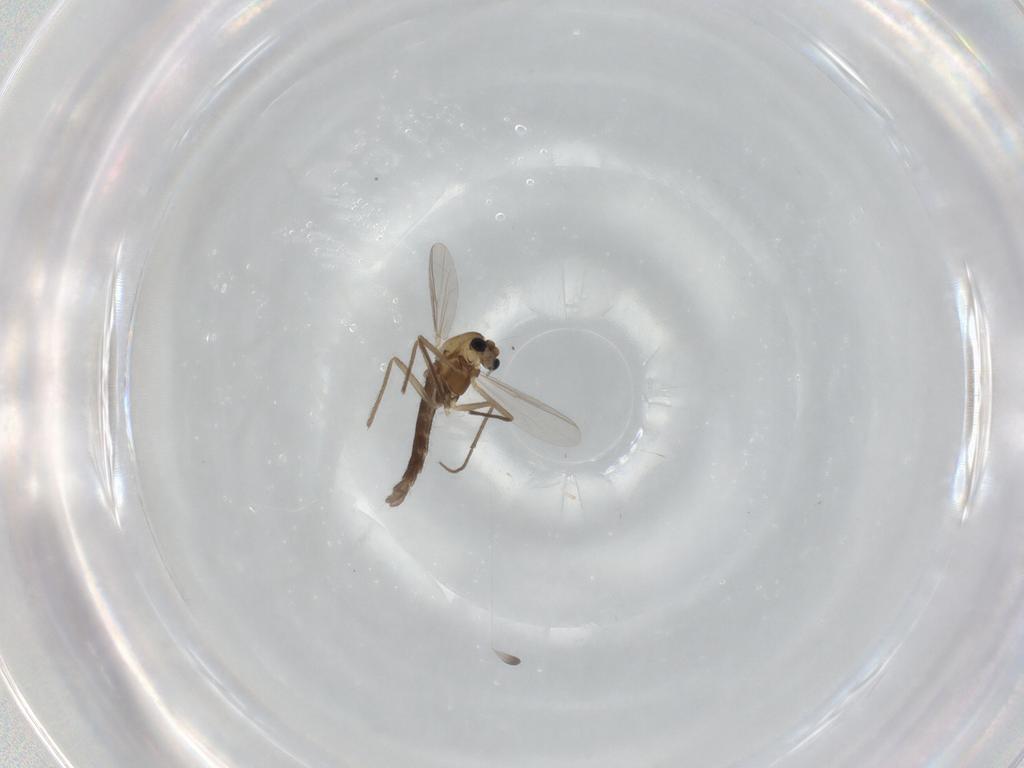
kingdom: Animalia
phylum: Arthropoda
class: Insecta
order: Diptera
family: Chironomidae
